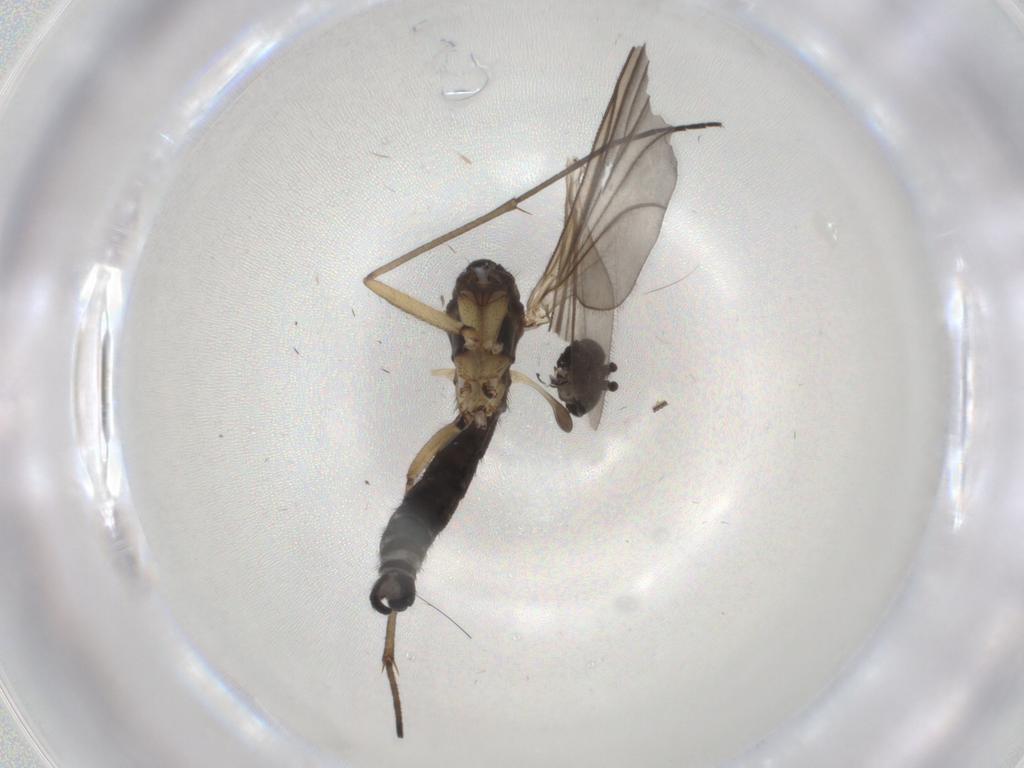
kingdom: Animalia
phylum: Arthropoda
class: Insecta
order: Diptera
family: Sciaridae
